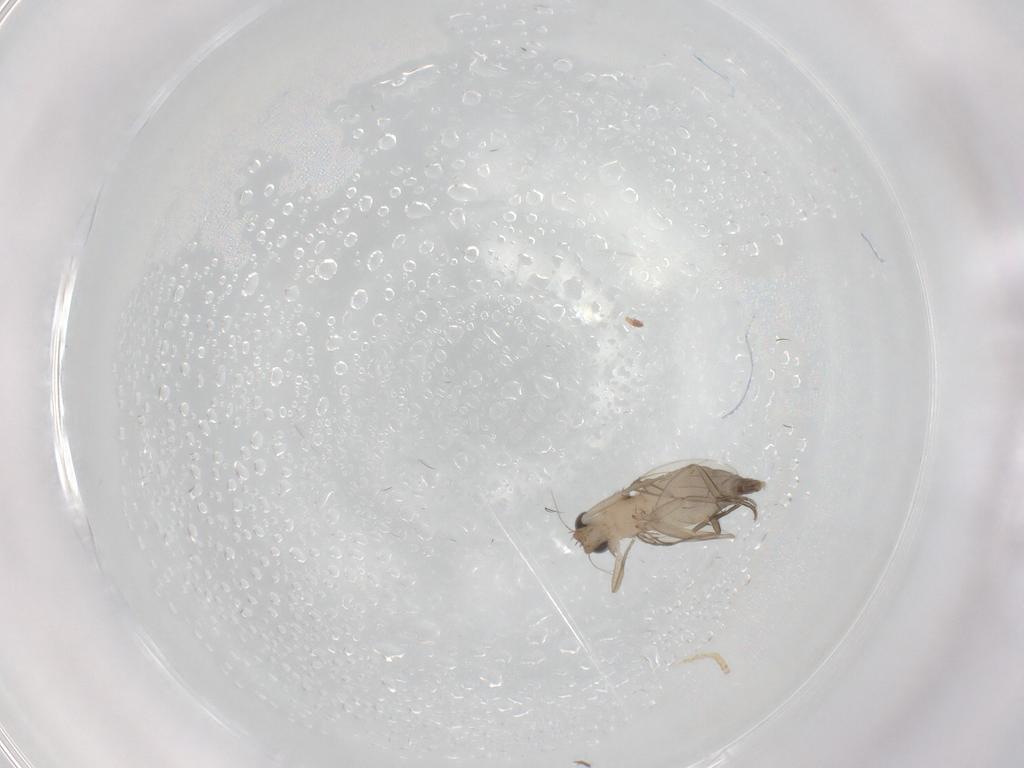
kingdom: Animalia
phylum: Arthropoda
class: Insecta
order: Diptera
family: Phoridae
